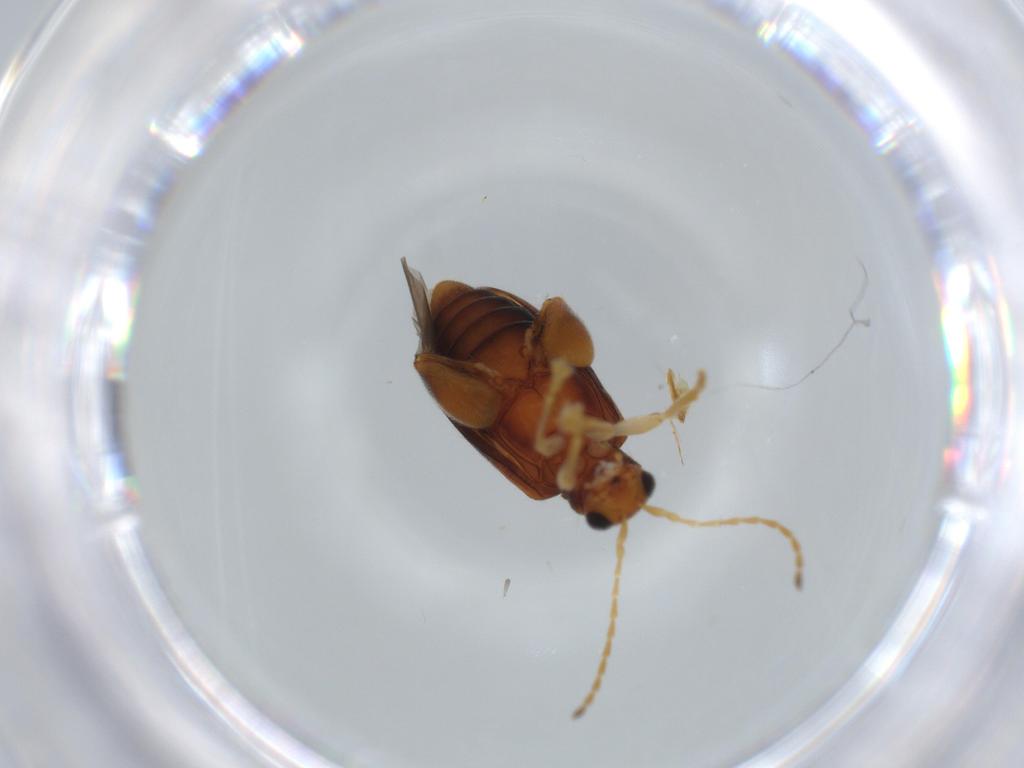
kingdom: Animalia
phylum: Arthropoda
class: Insecta
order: Coleoptera
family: Chrysomelidae
